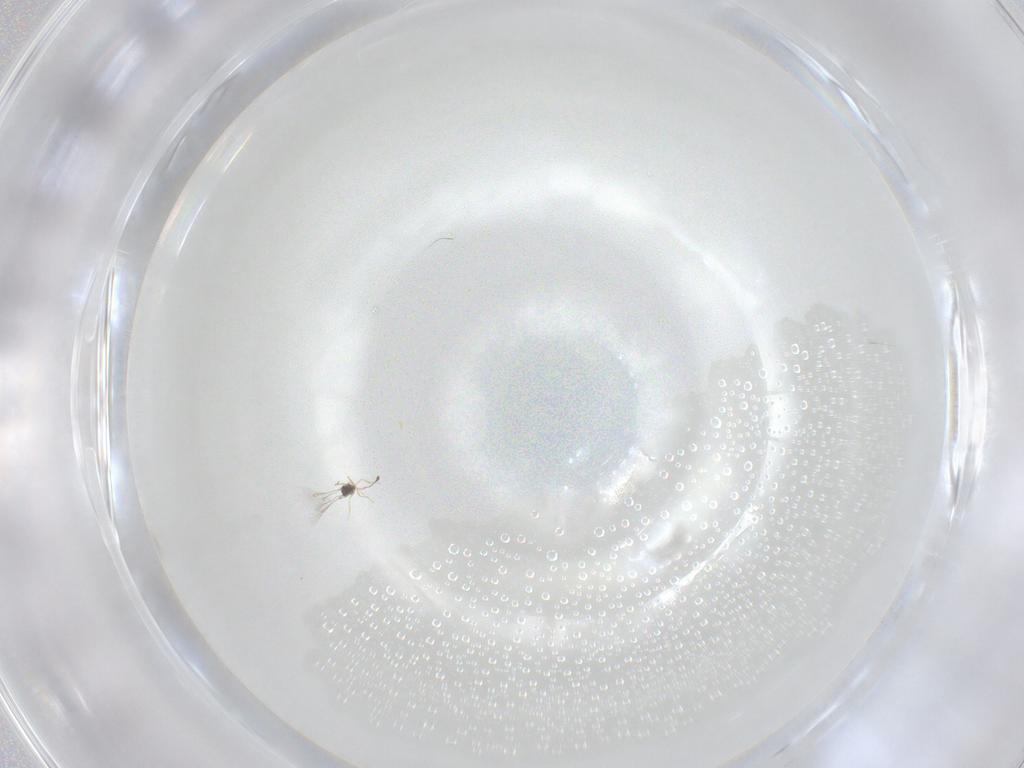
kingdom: Animalia
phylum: Arthropoda
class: Insecta
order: Hymenoptera
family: Mymaridae
